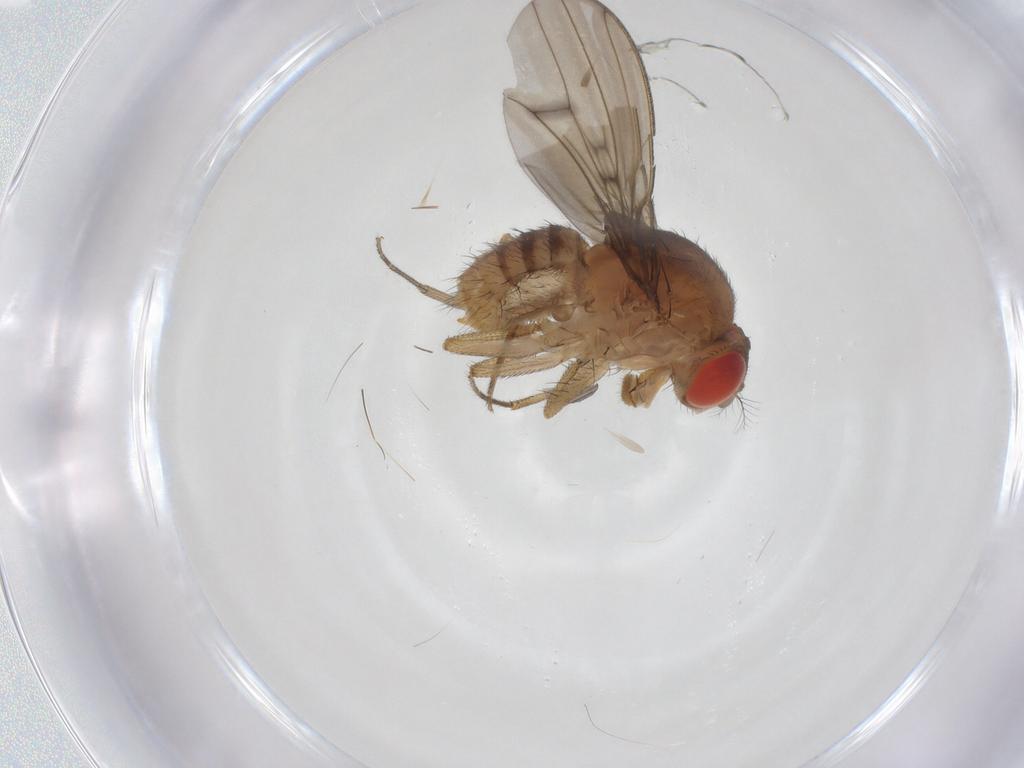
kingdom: Animalia
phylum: Arthropoda
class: Insecta
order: Diptera
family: Drosophilidae
